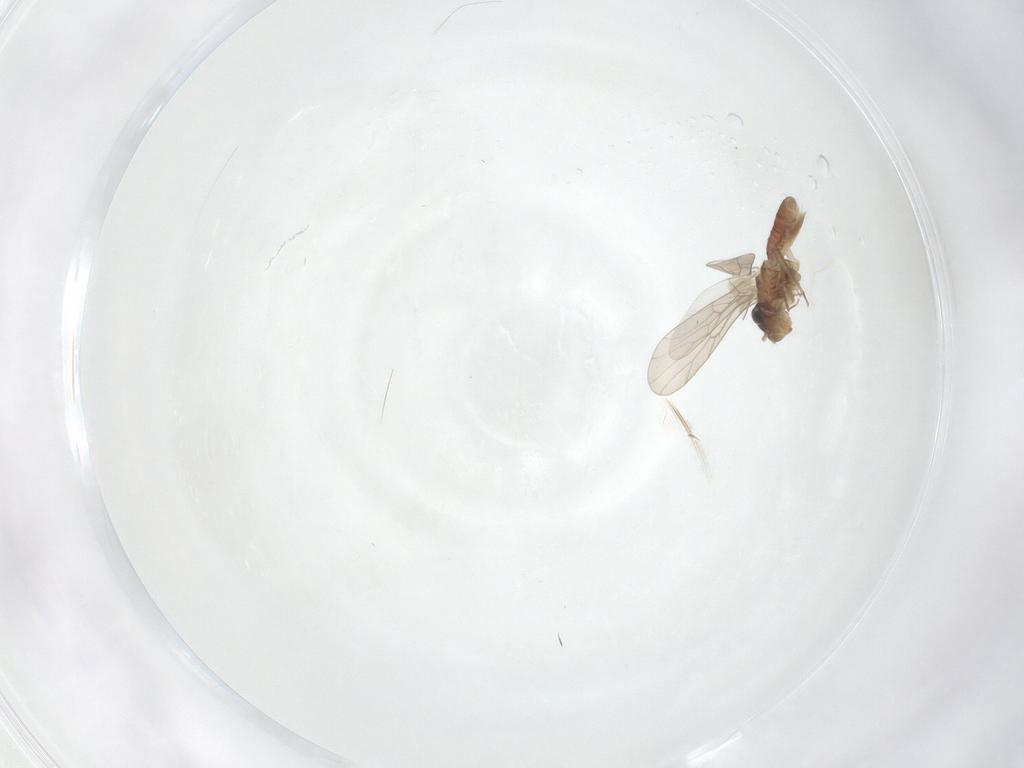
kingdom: Animalia
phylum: Arthropoda
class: Insecta
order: Psocodea
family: Lepidopsocidae
